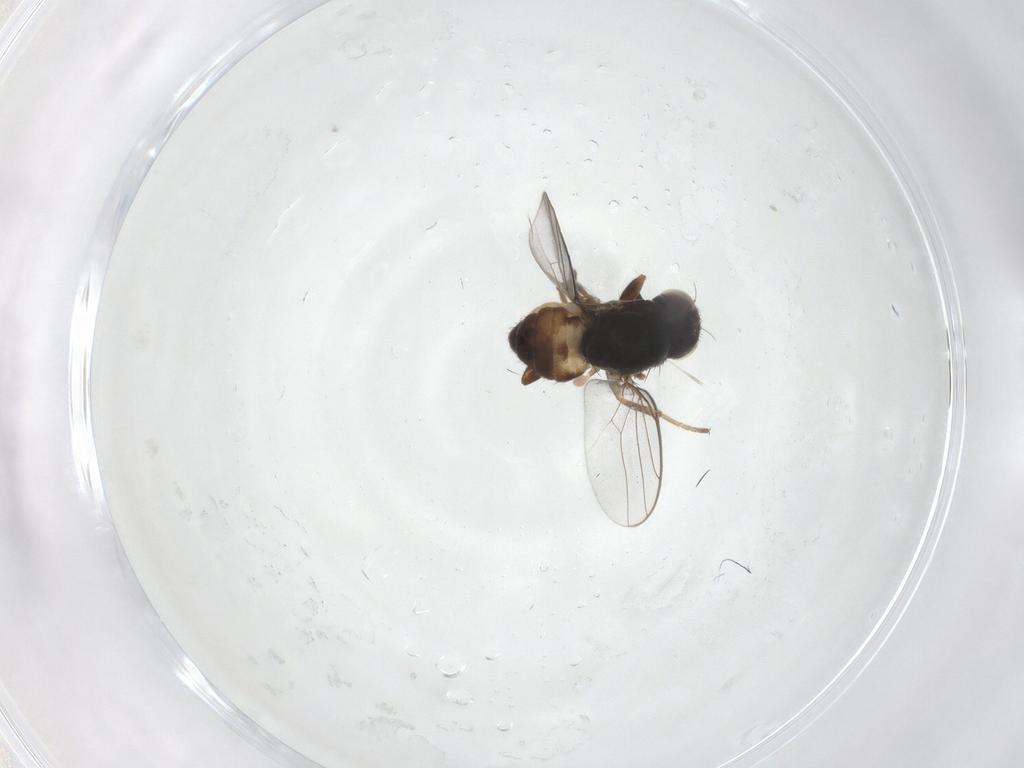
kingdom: Animalia
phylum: Arthropoda
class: Insecta
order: Diptera
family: Chloropidae
